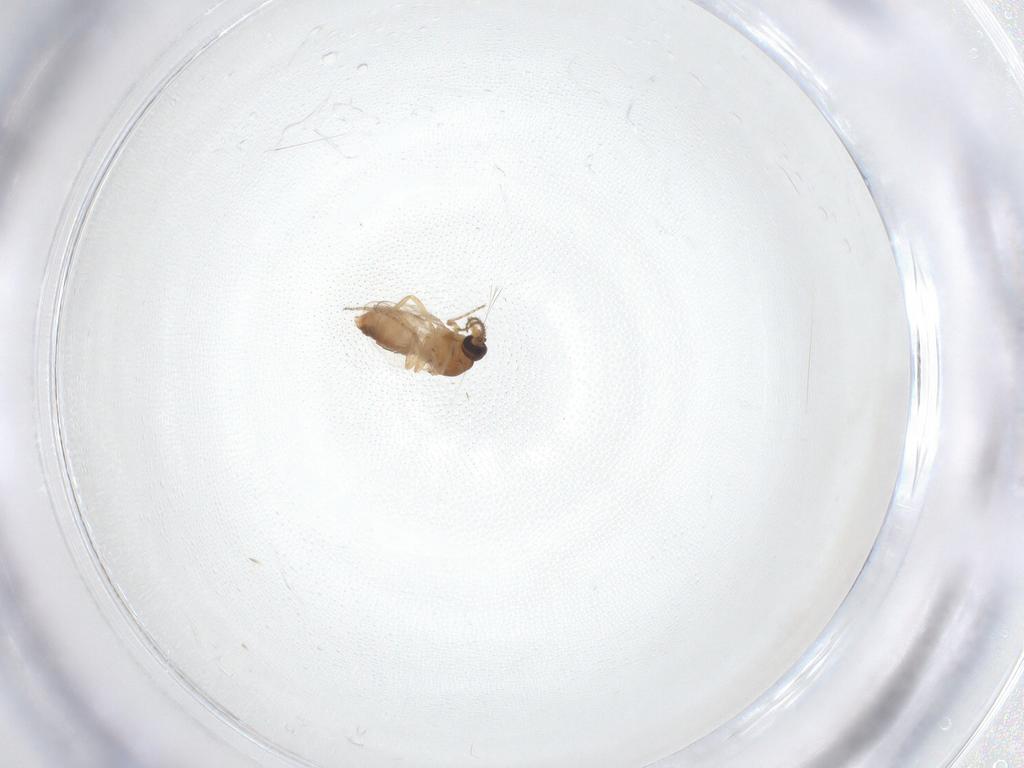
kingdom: Animalia
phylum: Arthropoda
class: Insecta
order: Diptera
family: Ceratopogonidae
